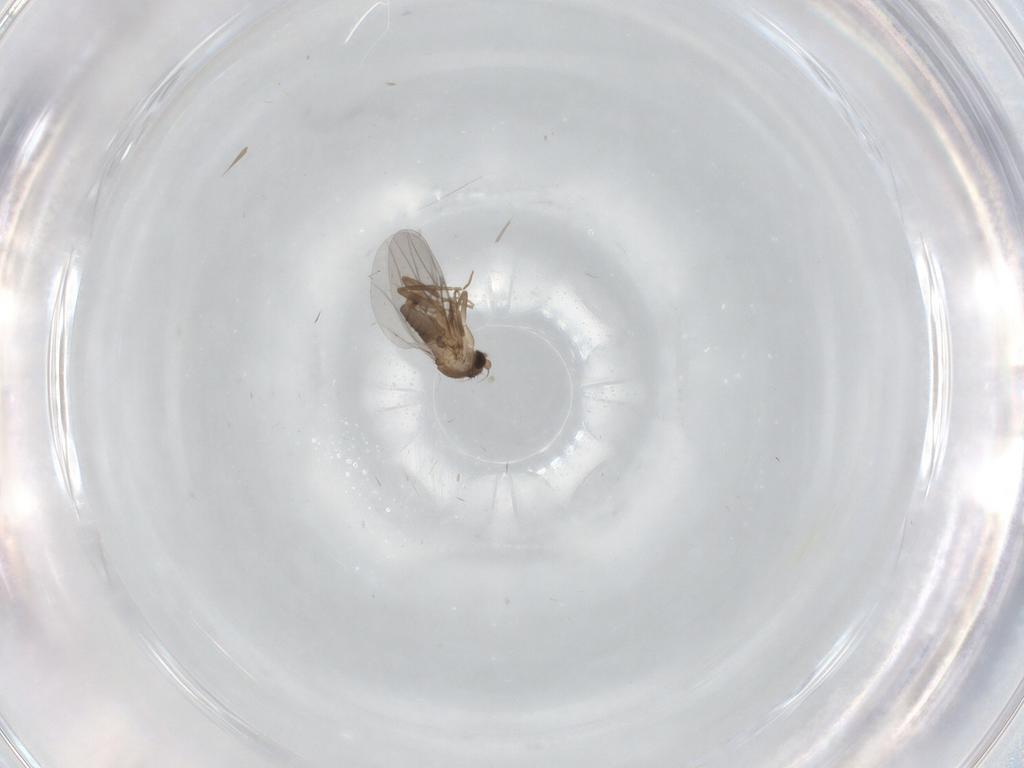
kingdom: Animalia
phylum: Arthropoda
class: Insecta
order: Diptera
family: Cecidomyiidae
